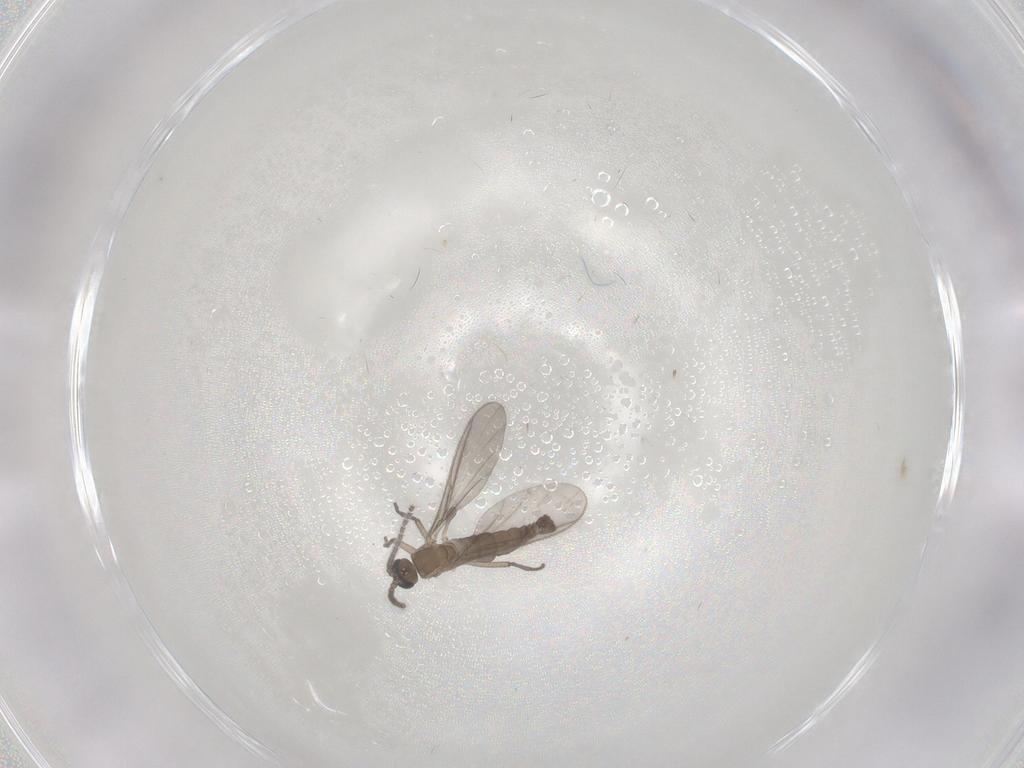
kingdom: Animalia
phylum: Arthropoda
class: Insecta
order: Diptera
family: Sciaridae
